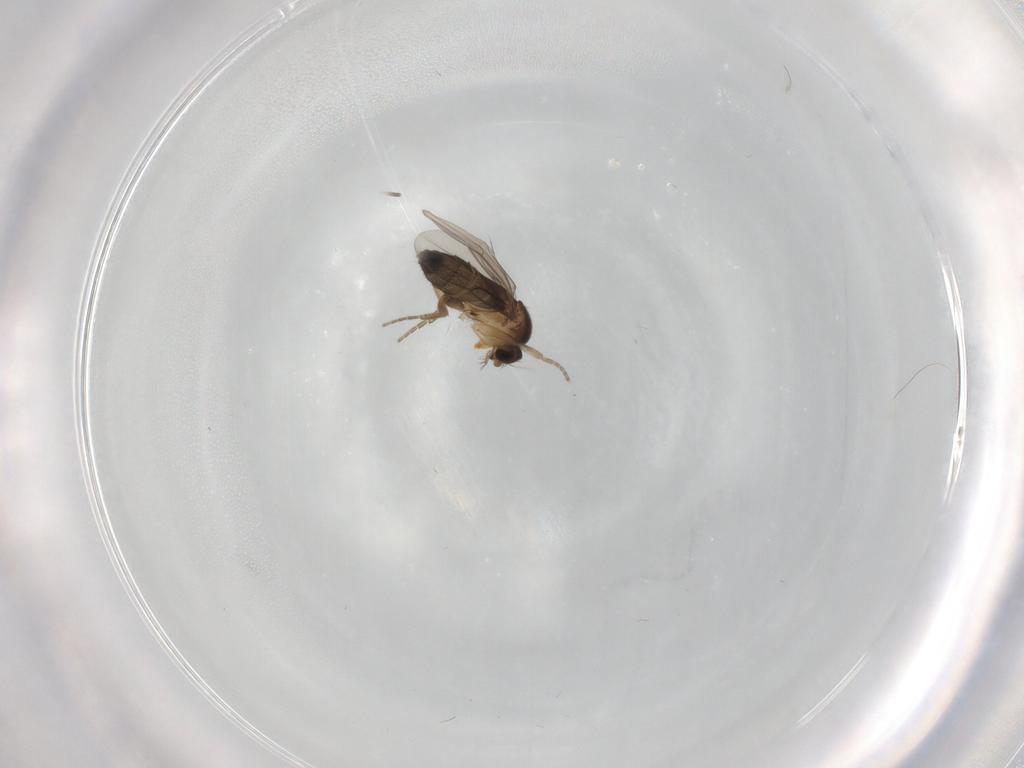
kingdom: Animalia
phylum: Arthropoda
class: Insecta
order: Diptera
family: Phoridae
